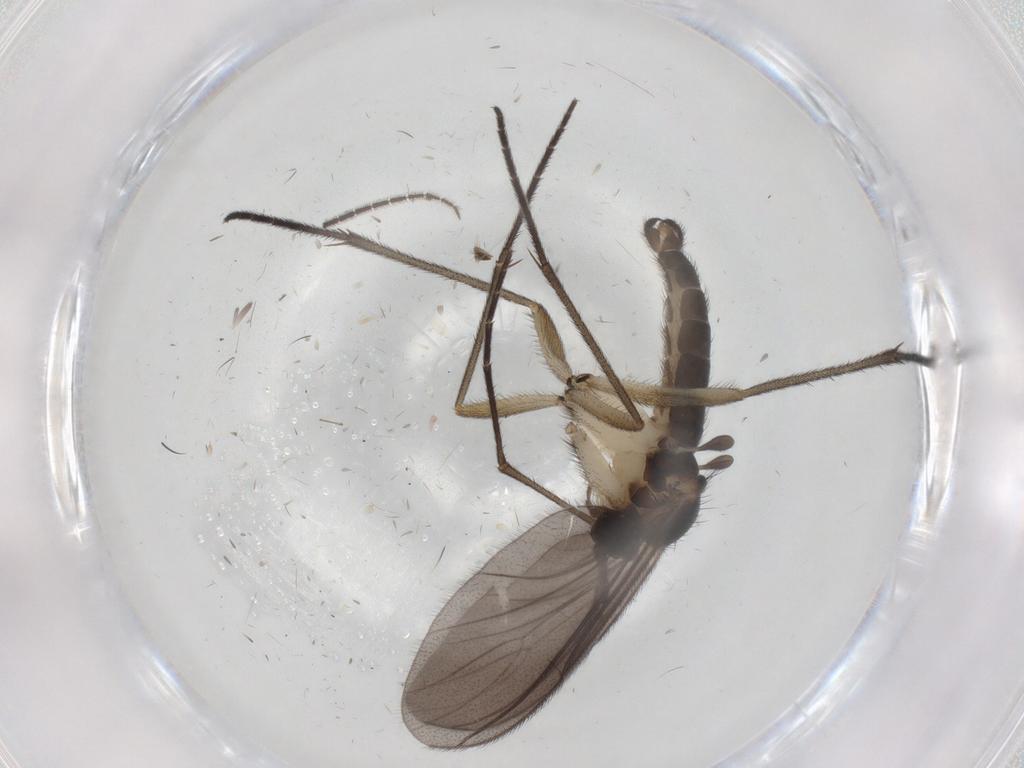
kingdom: Animalia
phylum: Arthropoda
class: Insecta
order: Diptera
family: Sciaridae
